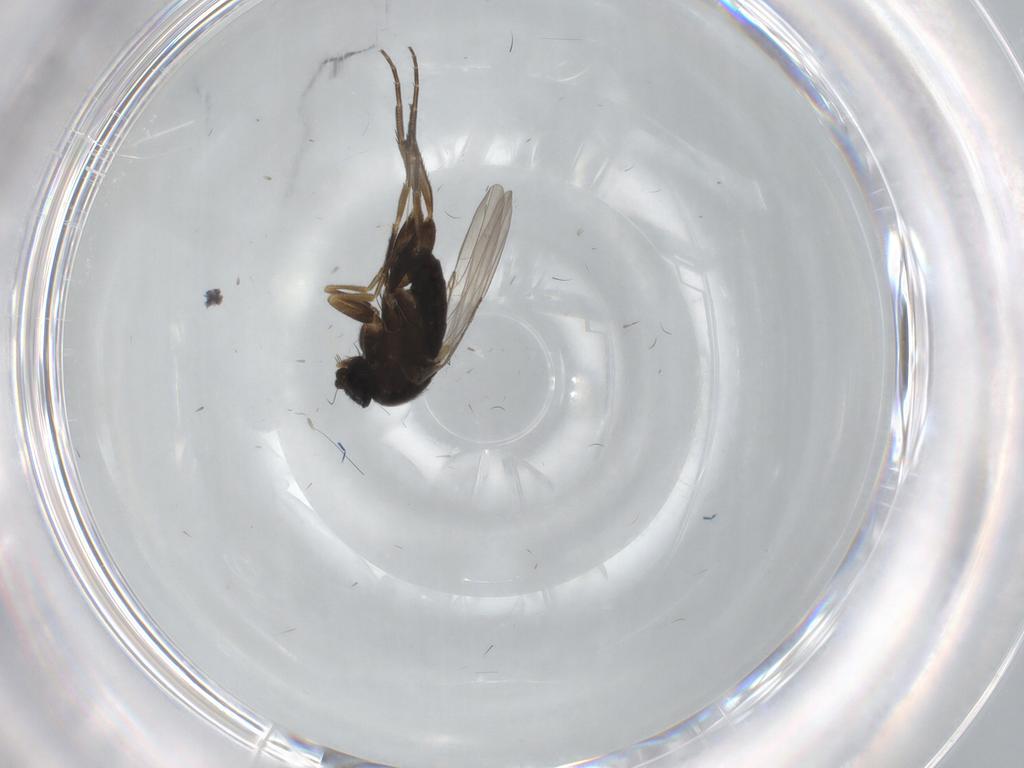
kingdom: Animalia
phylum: Arthropoda
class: Insecta
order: Diptera
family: Phoridae
